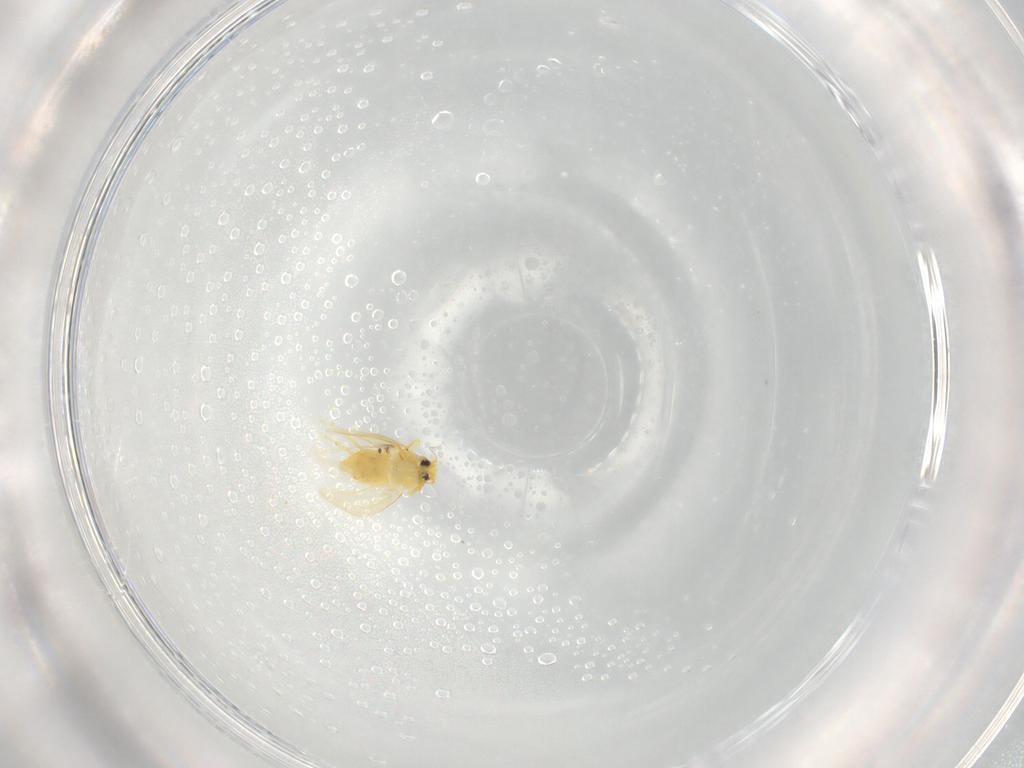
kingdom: Animalia
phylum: Arthropoda
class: Insecta
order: Hemiptera
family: Aleyrodidae
